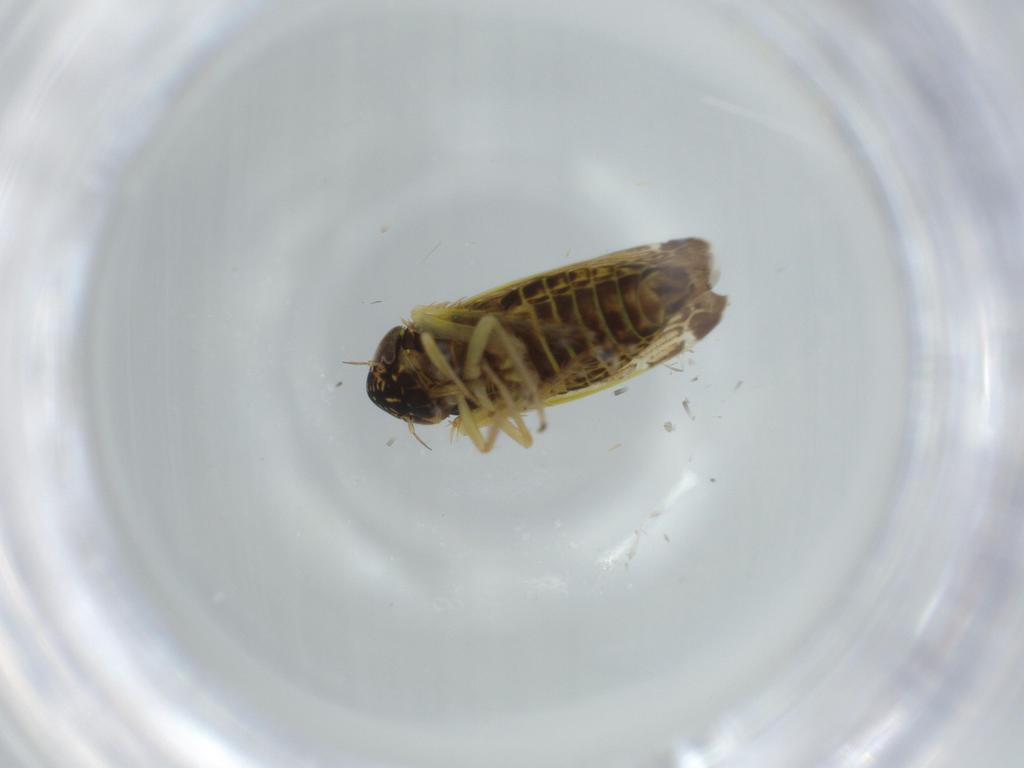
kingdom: Animalia
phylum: Arthropoda
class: Insecta
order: Hemiptera
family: Cicadellidae
